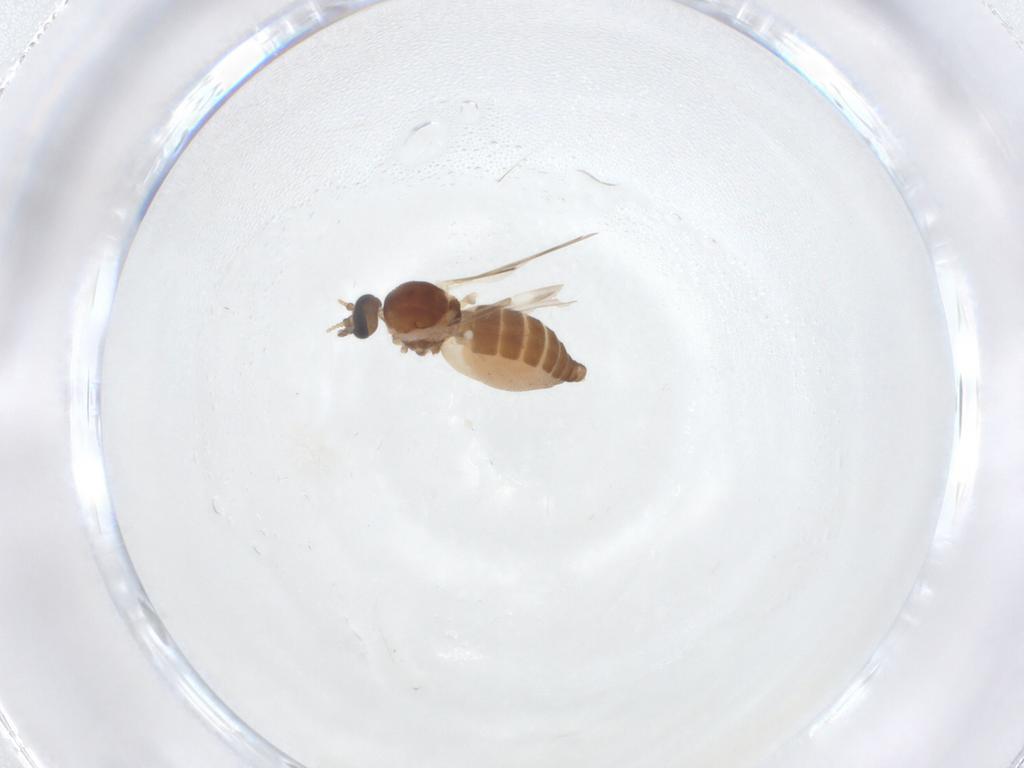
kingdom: Animalia
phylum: Arthropoda
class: Insecta
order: Diptera
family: Ceratopogonidae
